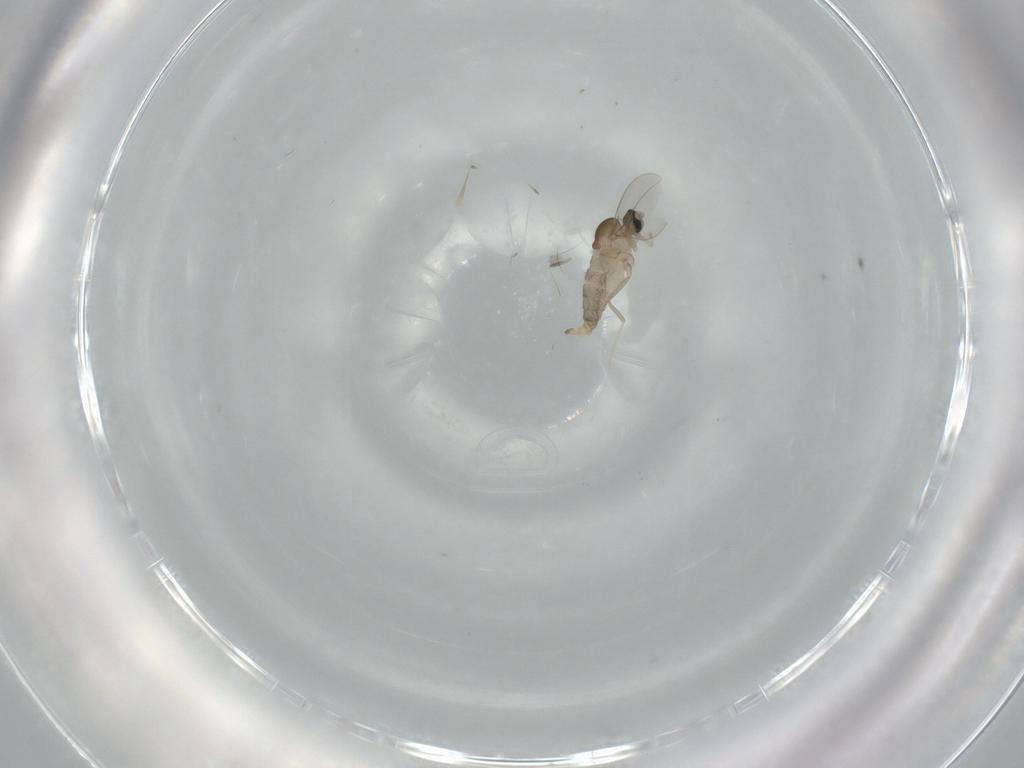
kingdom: Animalia
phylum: Arthropoda
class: Insecta
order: Diptera
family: Cecidomyiidae
